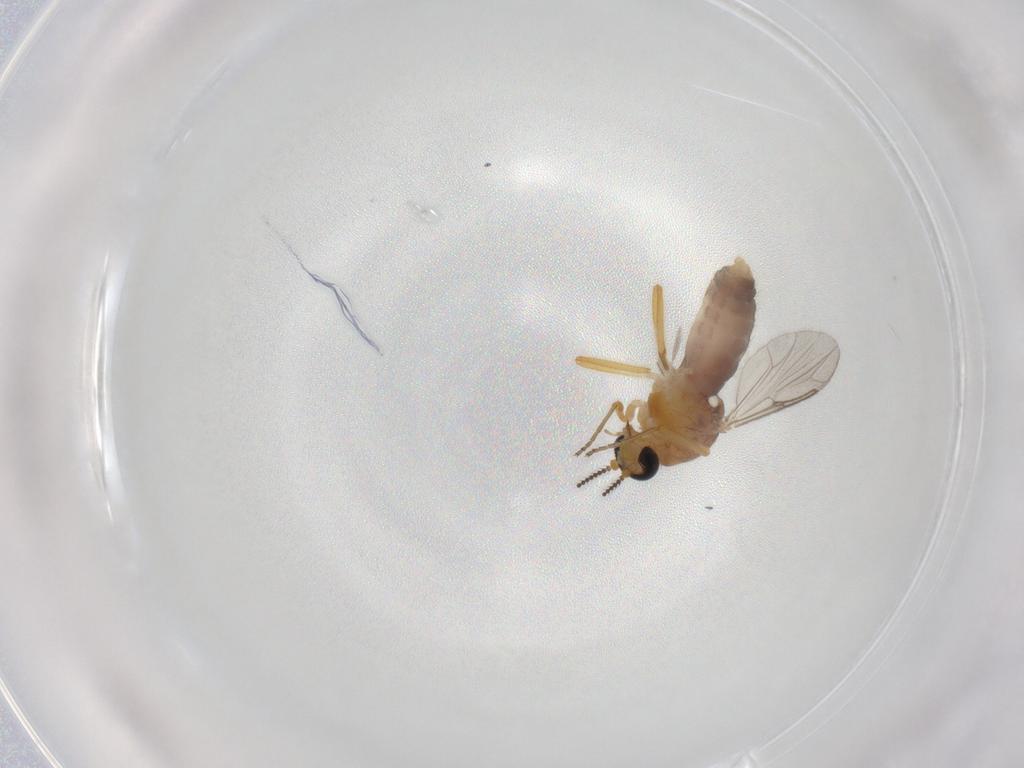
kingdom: Animalia
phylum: Arthropoda
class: Insecta
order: Diptera
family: Ceratopogonidae
